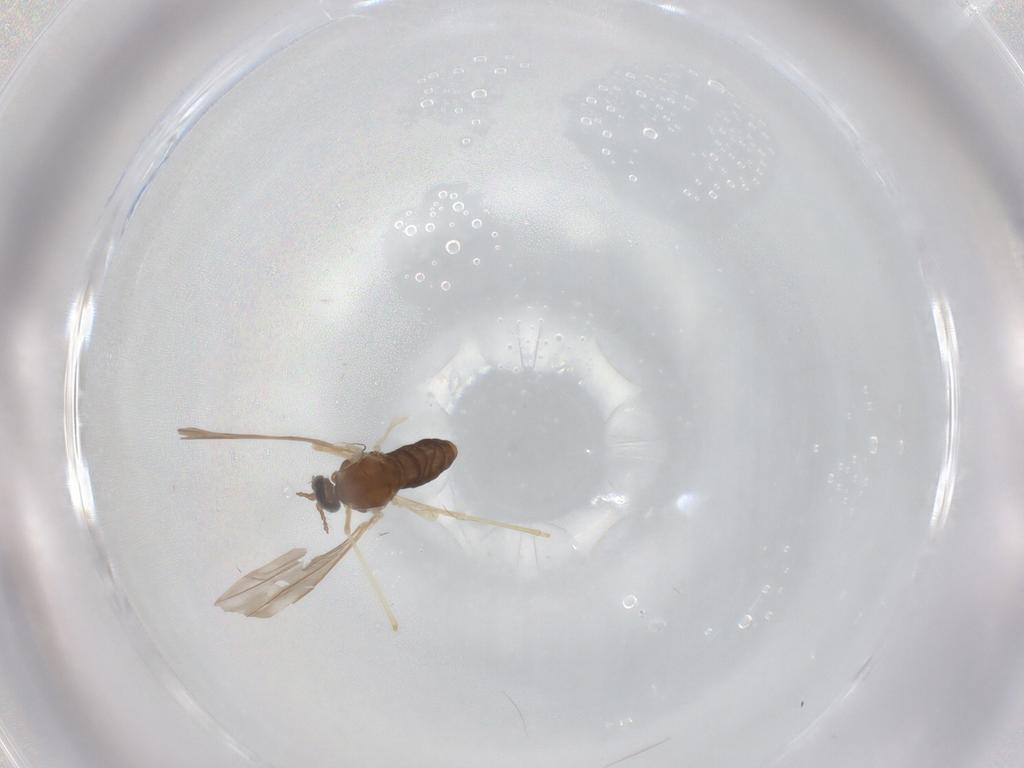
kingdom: Animalia
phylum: Arthropoda
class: Insecta
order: Diptera
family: Cecidomyiidae
